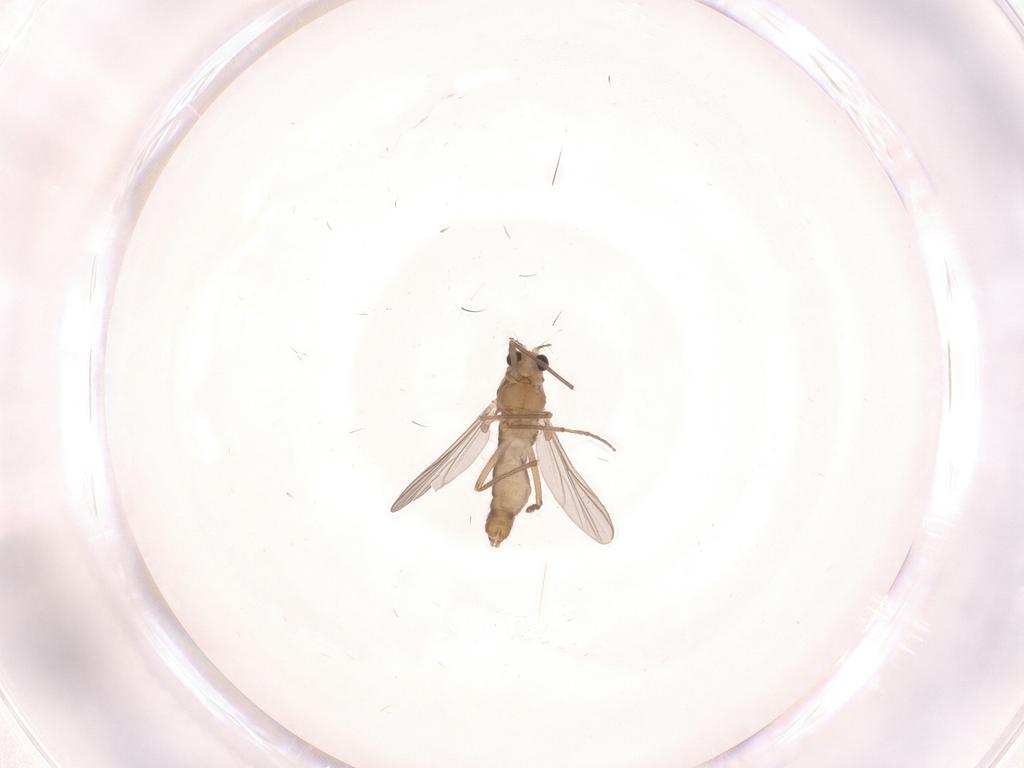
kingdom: Animalia
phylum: Arthropoda
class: Insecta
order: Diptera
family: Chironomidae
